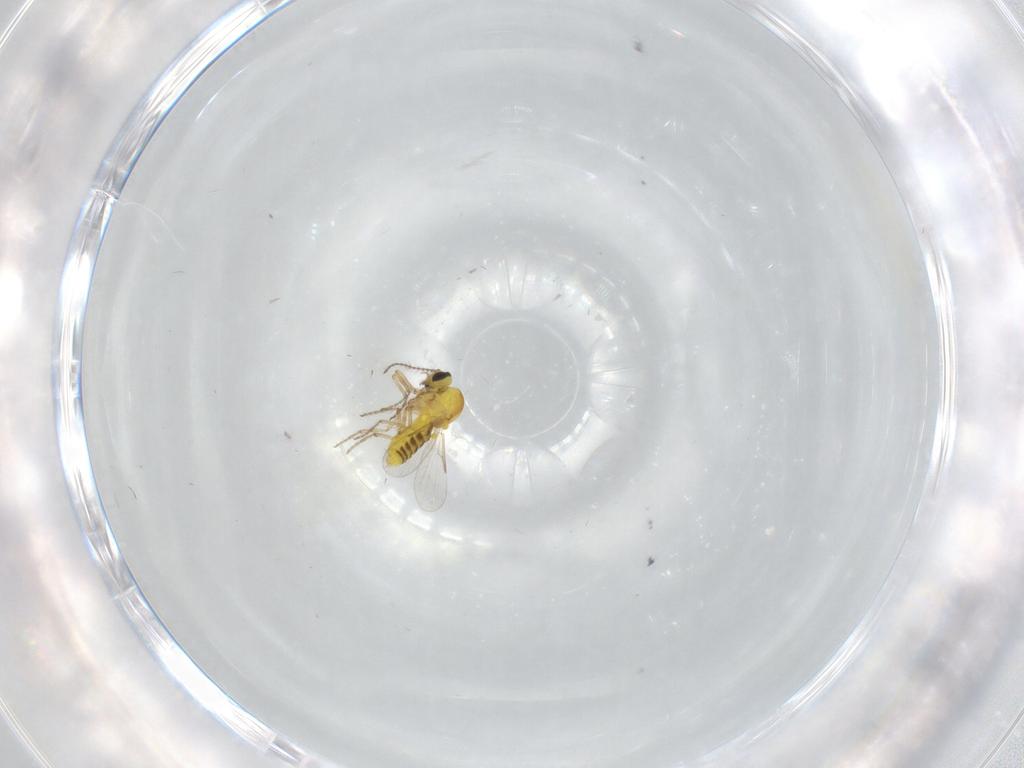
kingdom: Animalia
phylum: Arthropoda
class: Insecta
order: Diptera
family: Ceratopogonidae
